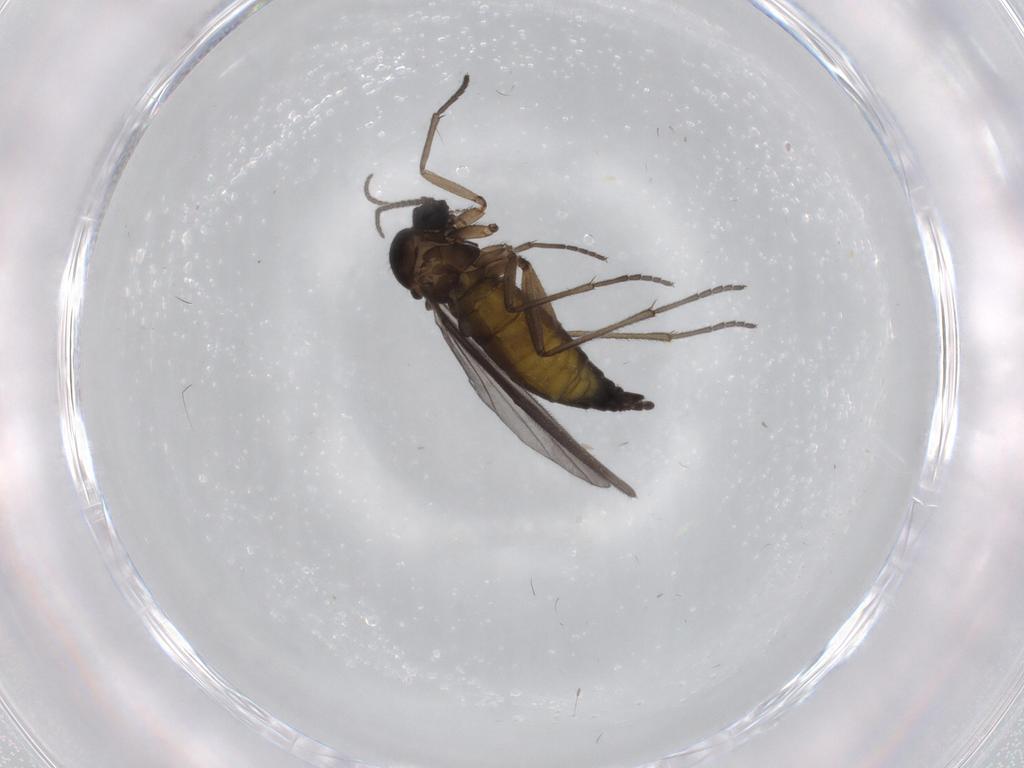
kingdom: Animalia
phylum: Arthropoda
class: Insecta
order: Diptera
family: Sciaridae
